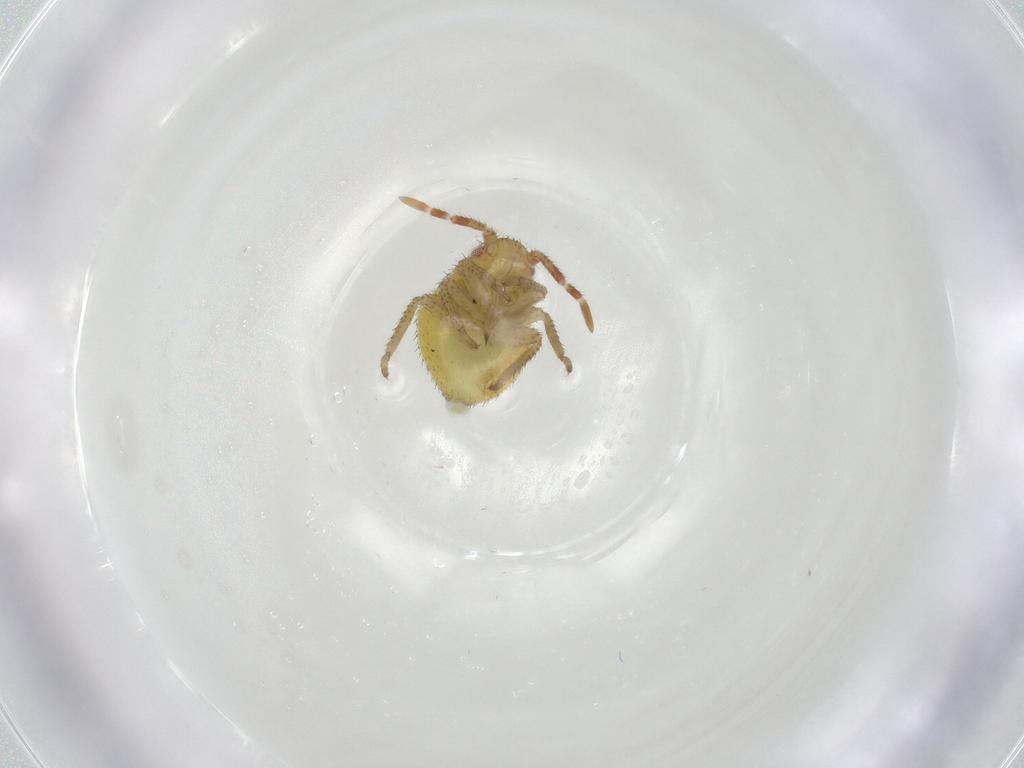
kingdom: Animalia
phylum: Arthropoda
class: Insecta
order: Hemiptera
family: Miridae
